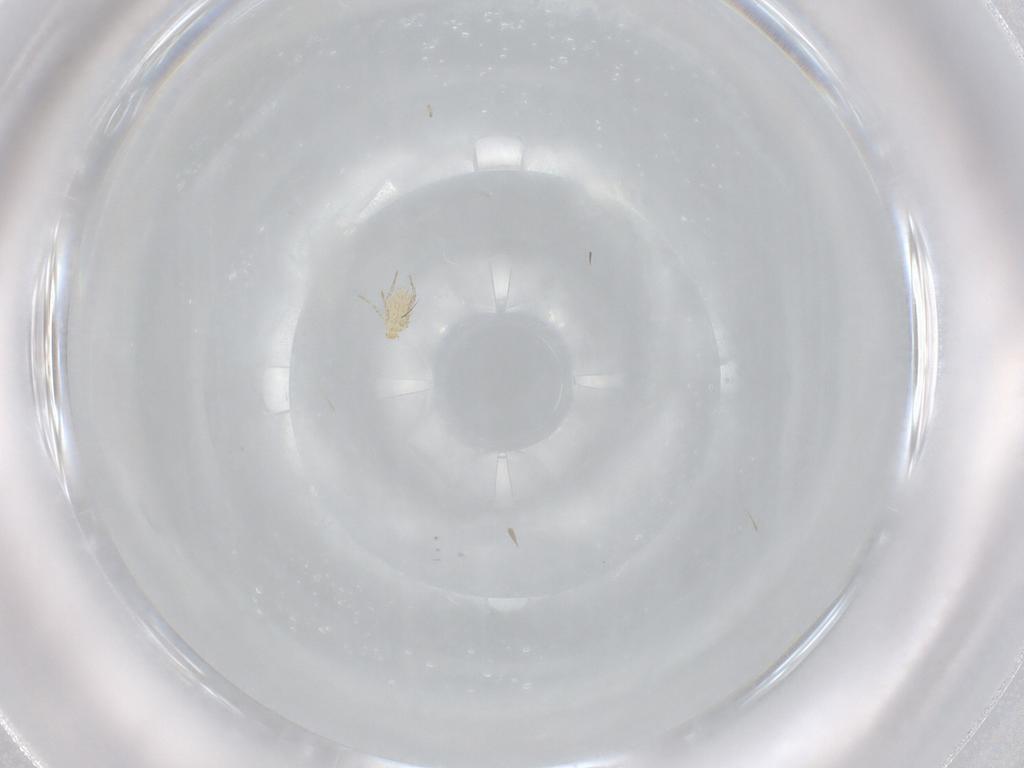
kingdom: Animalia
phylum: Arthropoda
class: Arachnida
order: Trombidiformes
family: Erythraeidae
